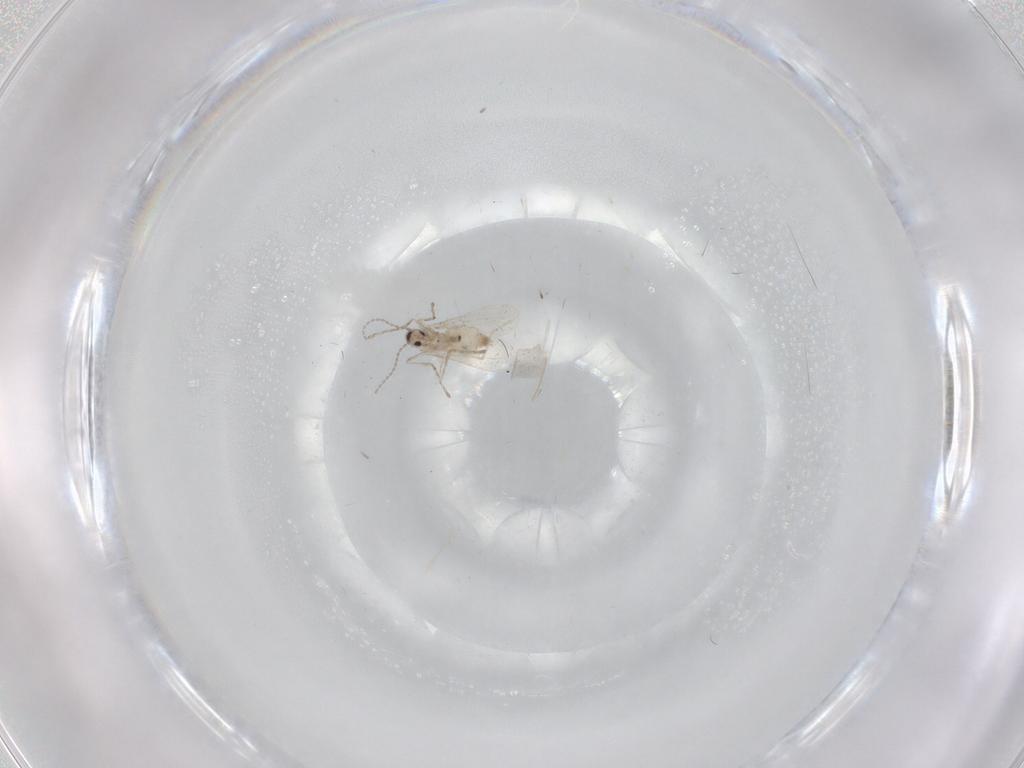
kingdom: Animalia
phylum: Arthropoda
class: Insecta
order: Diptera
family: Cecidomyiidae
